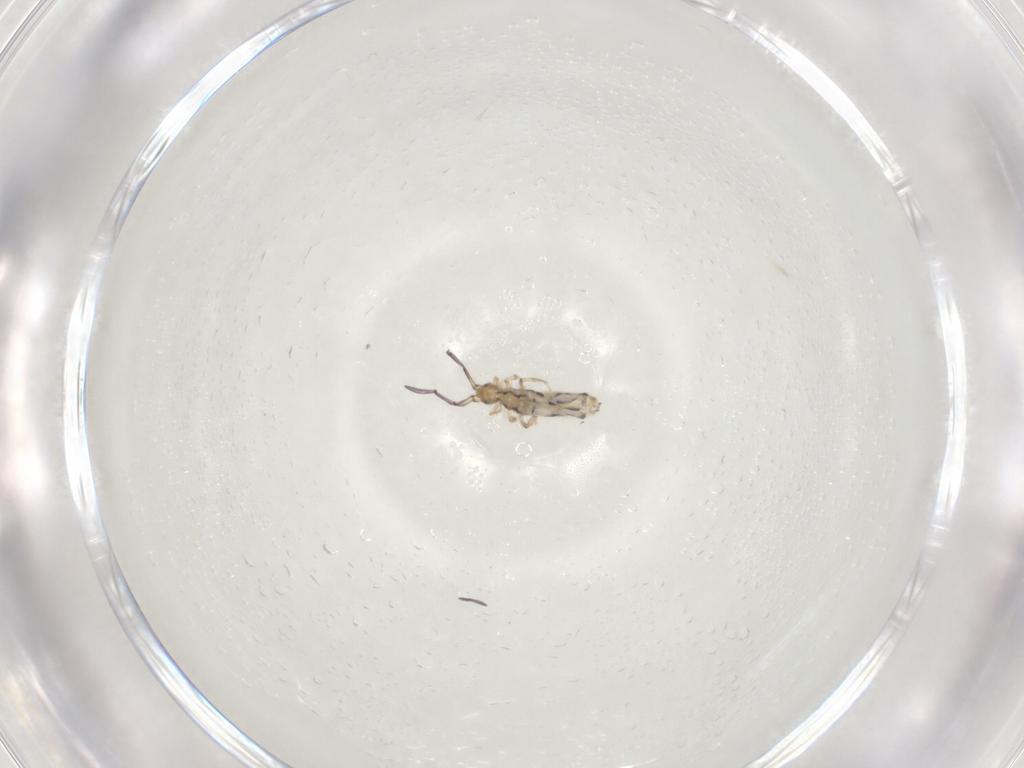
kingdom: Animalia
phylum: Arthropoda
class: Collembola
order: Entomobryomorpha
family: Entomobryidae
